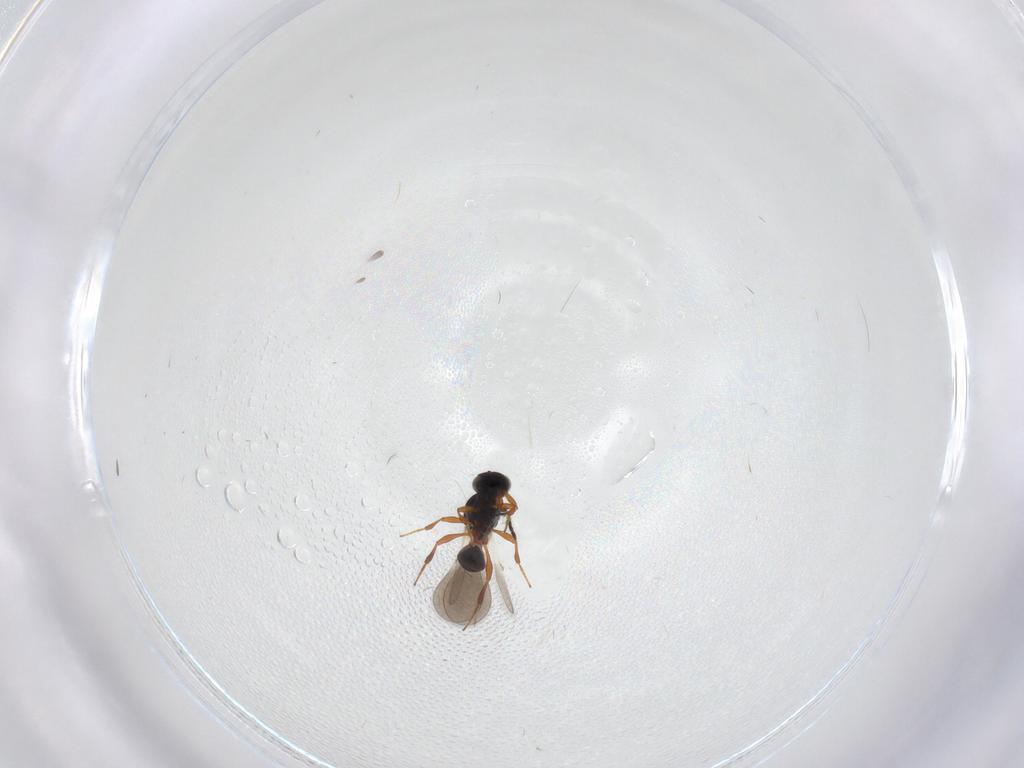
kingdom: Animalia
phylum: Arthropoda
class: Insecta
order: Hymenoptera
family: Platygastridae
